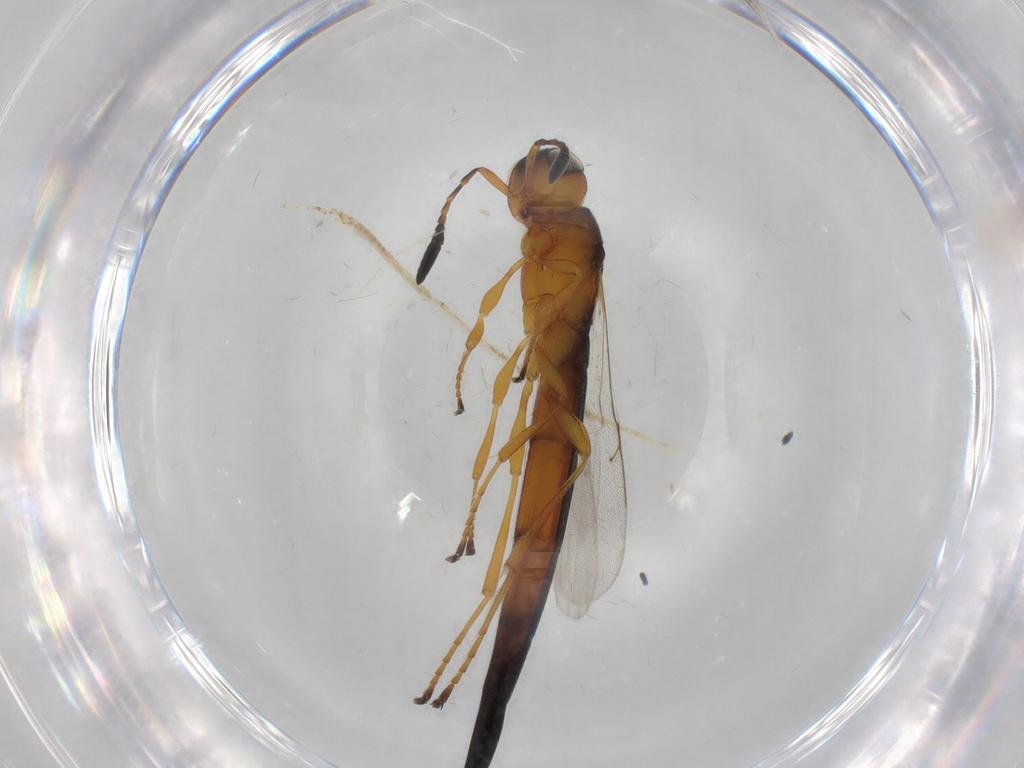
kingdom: Animalia
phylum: Arthropoda
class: Insecta
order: Hymenoptera
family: Scelionidae
